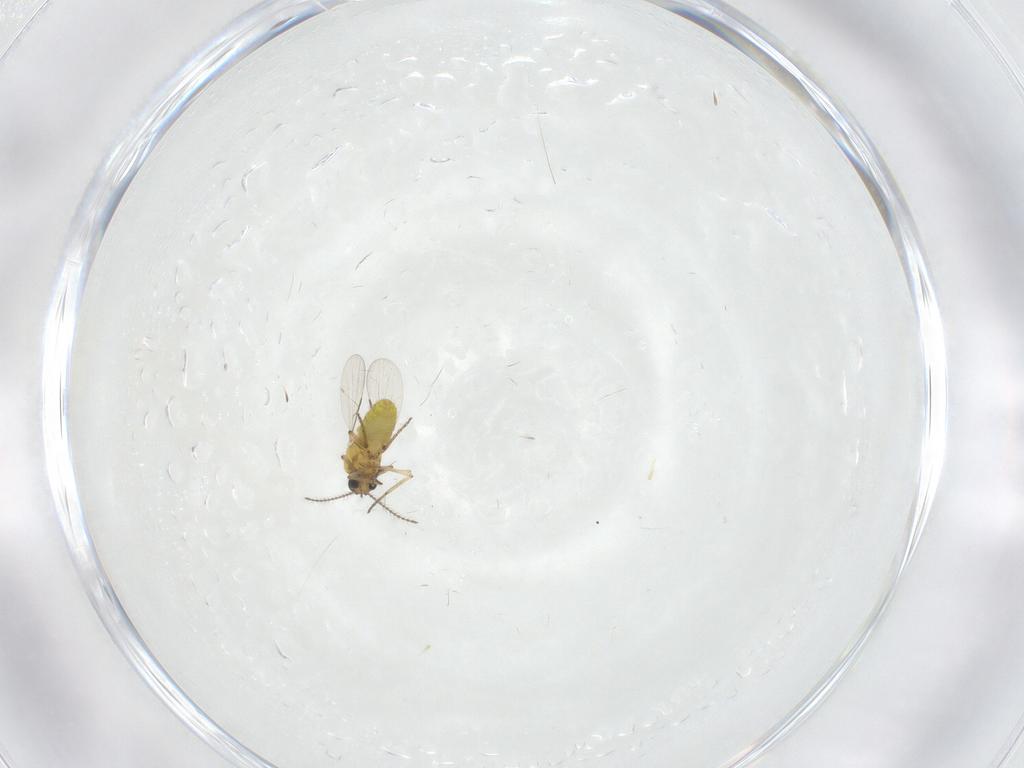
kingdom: Animalia
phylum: Arthropoda
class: Insecta
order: Diptera
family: Ceratopogonidae
